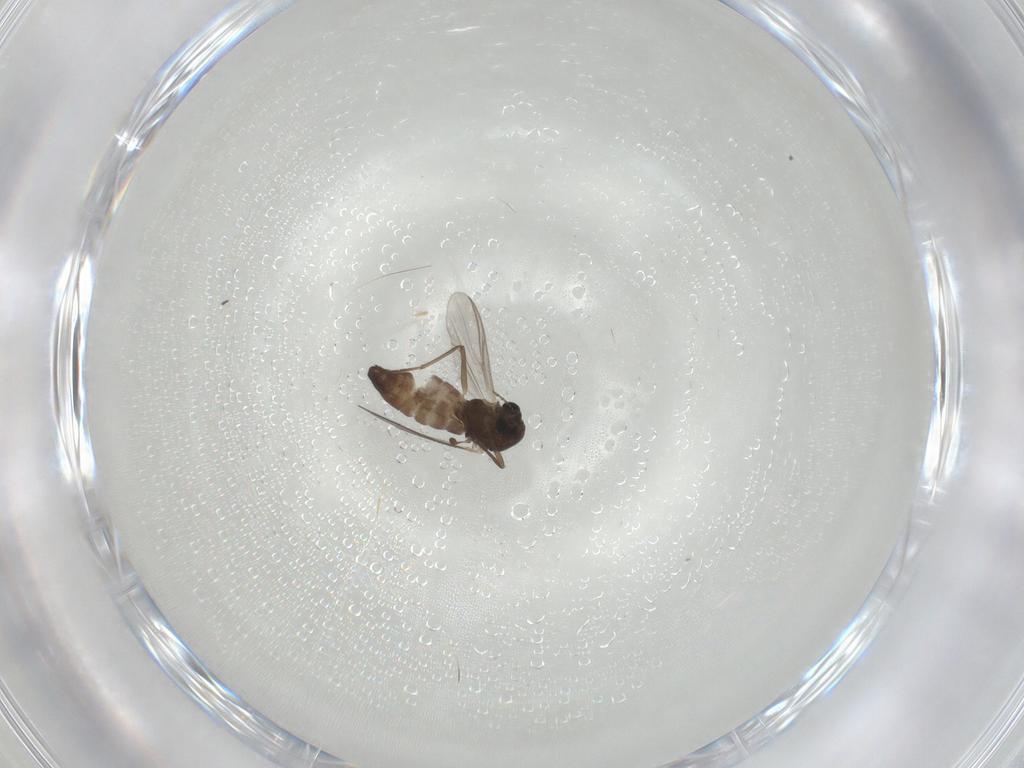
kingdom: Animalia
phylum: Arthropoda
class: Insecta
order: Diptera
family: Chironomidae
